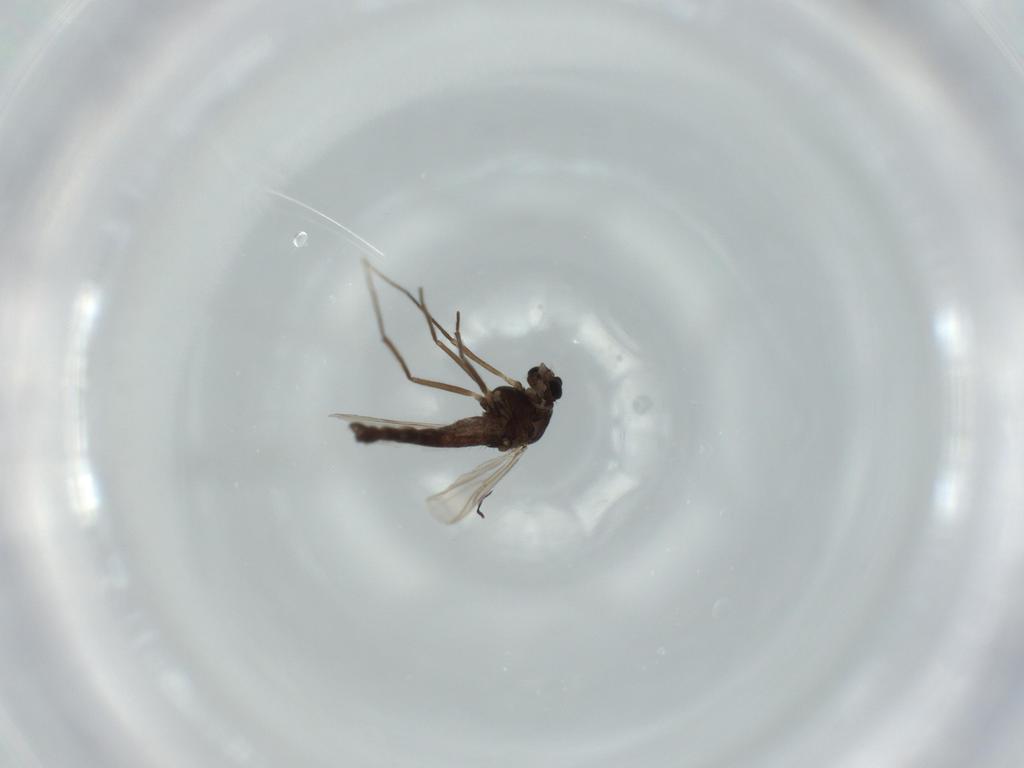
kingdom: Animalia
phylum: Arthropoda
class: Insecta
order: Diptera
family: Chironomidae
